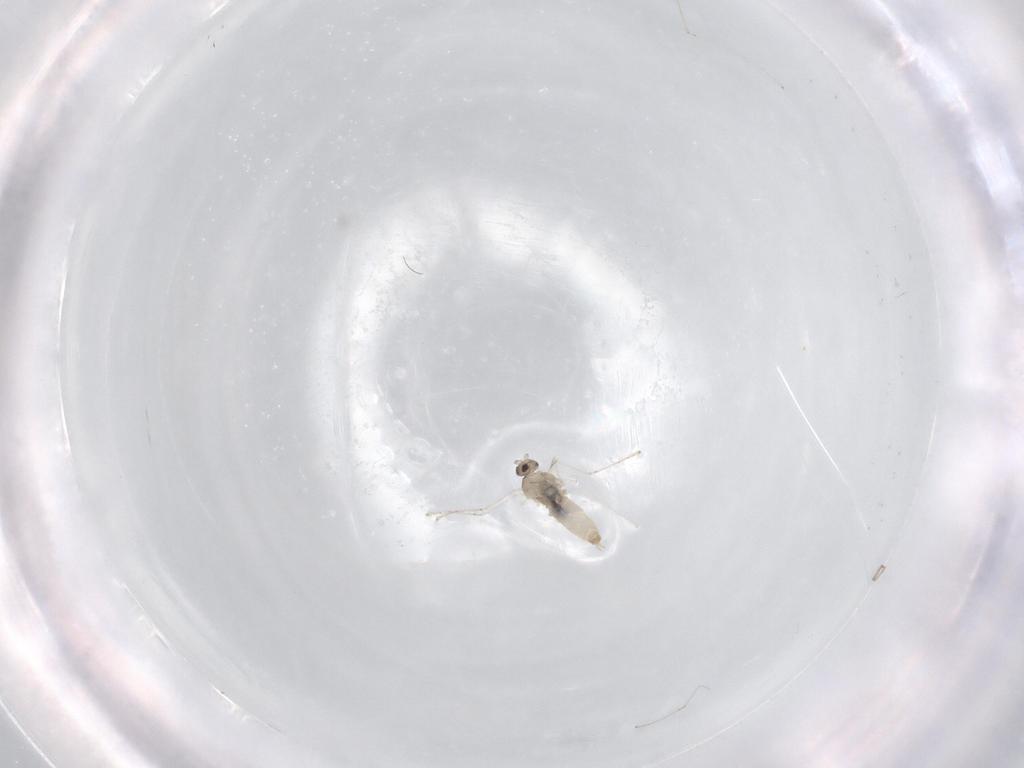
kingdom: Animalia
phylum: Arthropoda
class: Insecta
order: Diptera
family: Cecidomyiidae
